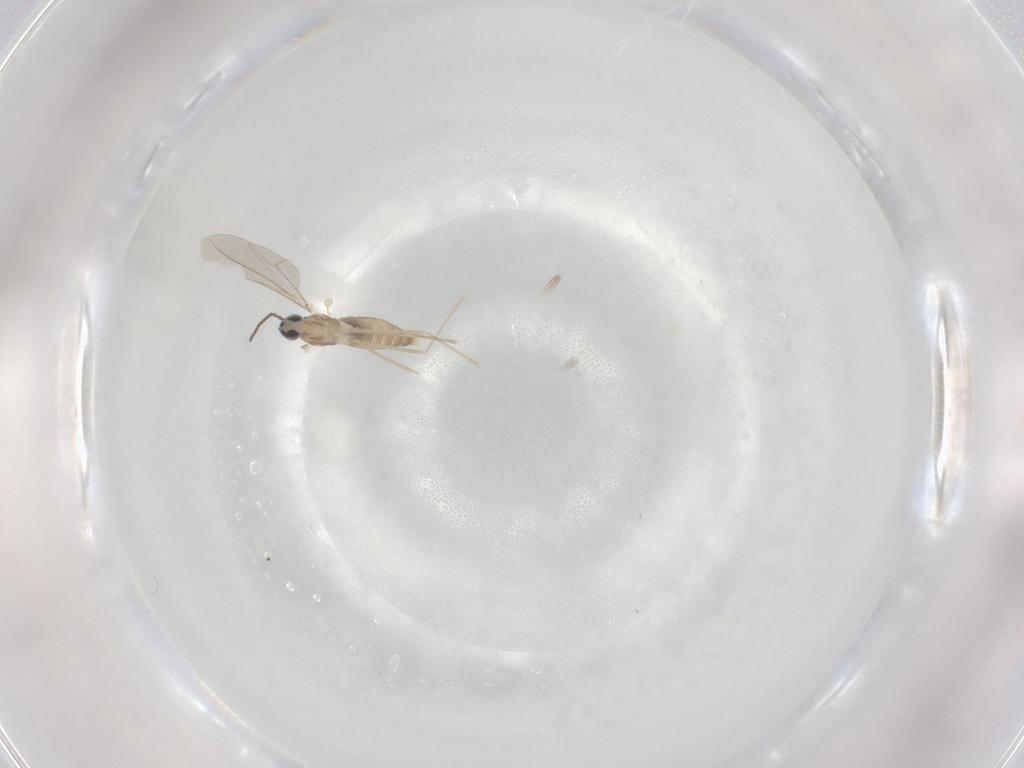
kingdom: Animalia
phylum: Arthropoda
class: Insecta
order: Diptera
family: Cecidomyiidae
